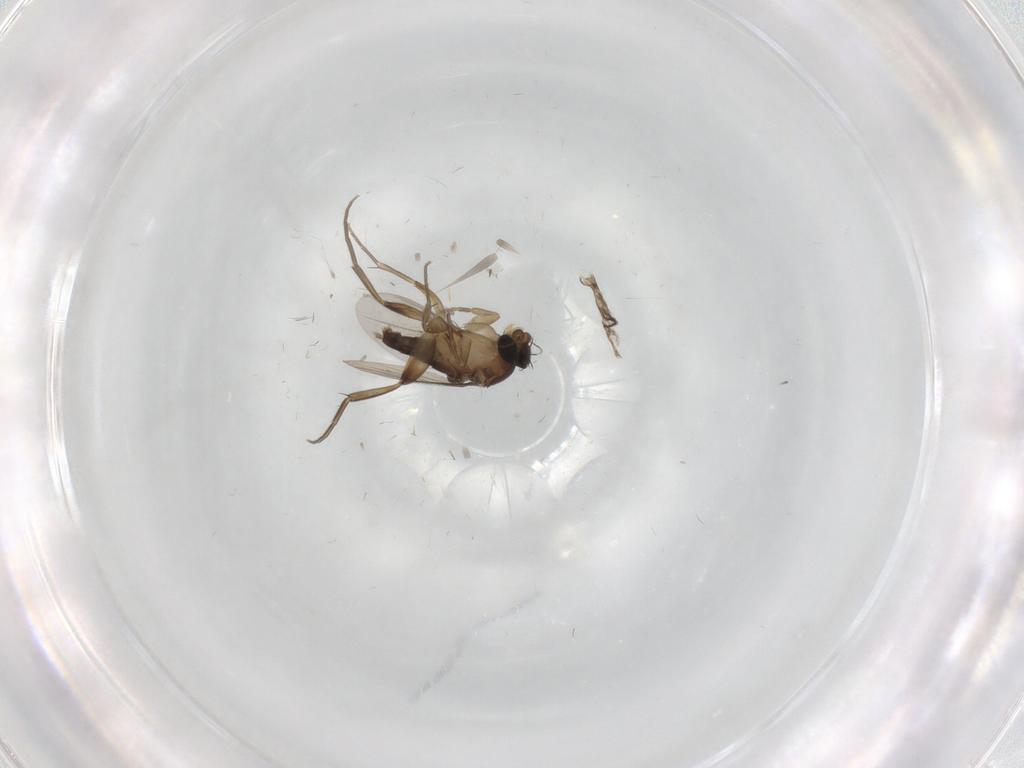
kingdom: Animalia
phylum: Arthropoda
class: Insecta
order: Diptera
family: Phoridae
